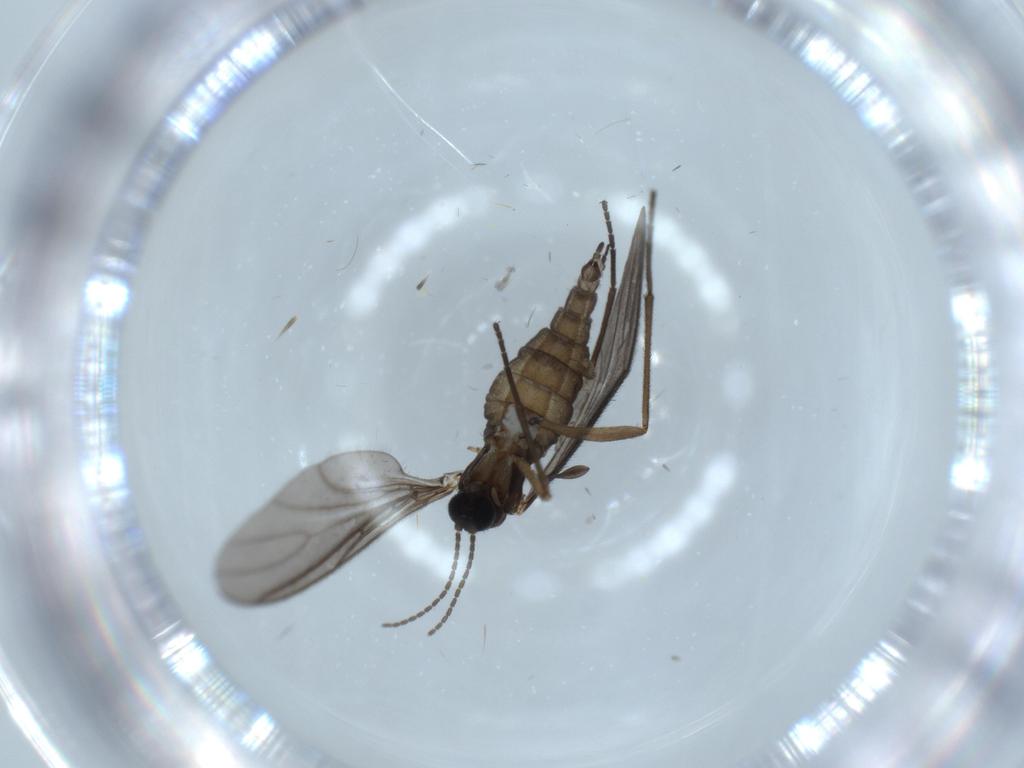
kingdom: Animalia
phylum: Arthropoda
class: Insecta
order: Diptera
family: Sciaridae
